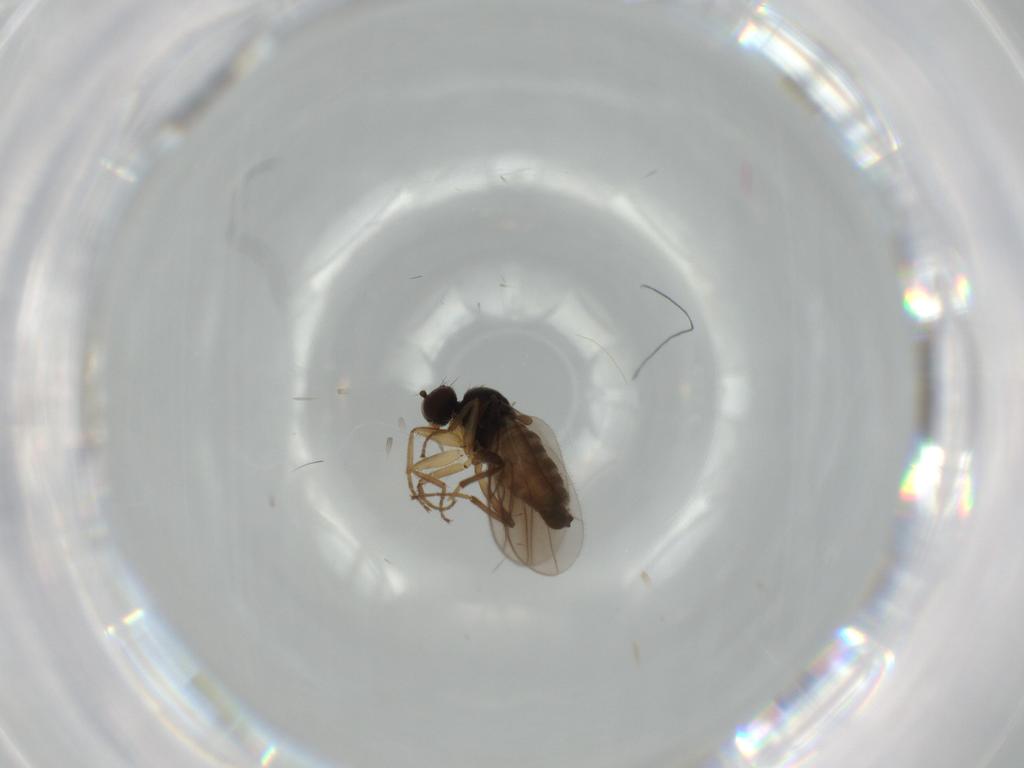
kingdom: Animalia
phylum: Arthropoda
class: Insecta
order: Diptera
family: Hybotidae
